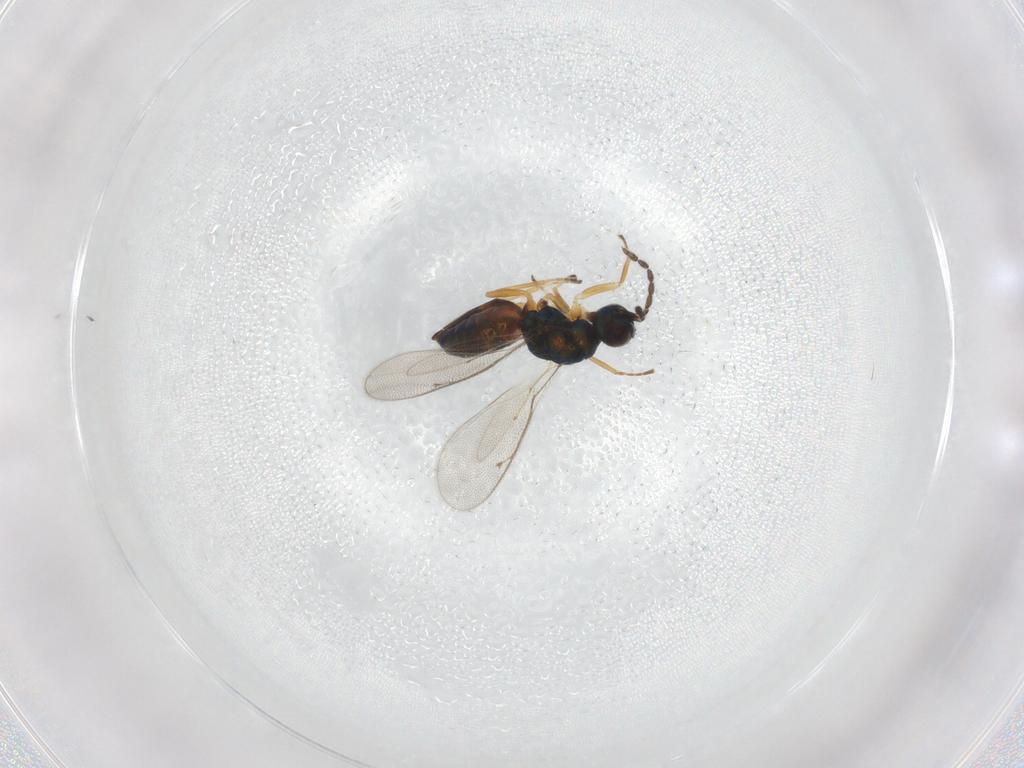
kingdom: Animalia
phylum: Arthropoda
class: Insecta
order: Hymenoptera
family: Eulophidae
